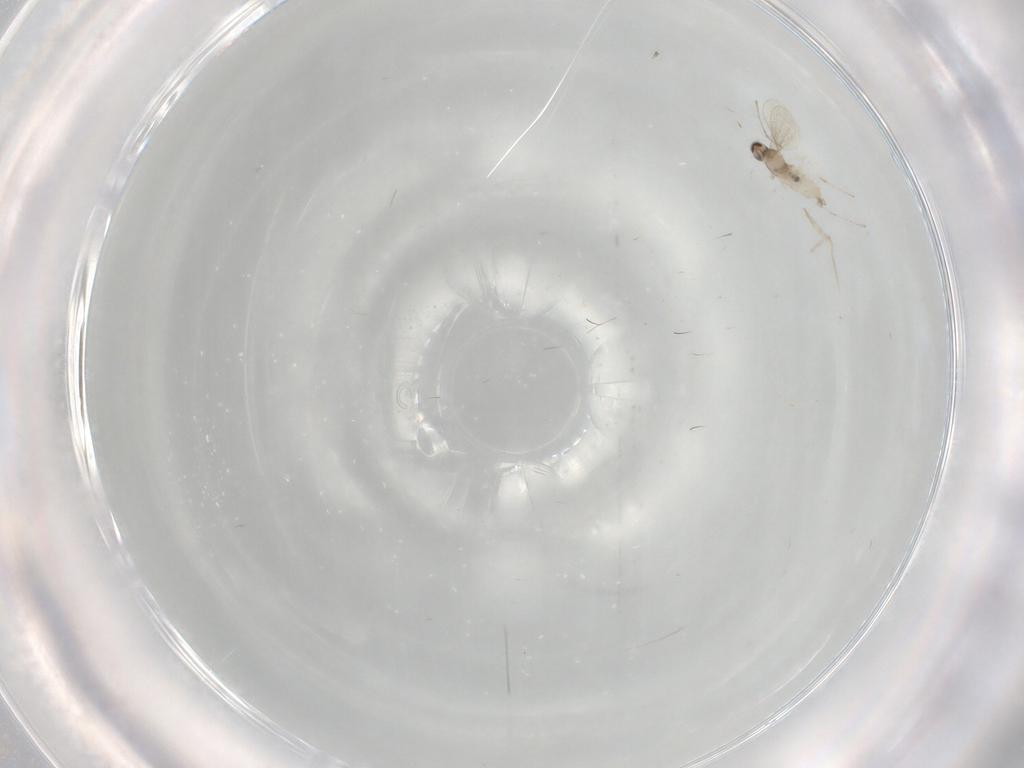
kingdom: Animalia
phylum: Arthropoda
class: Insecta
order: Diptera
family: Cecidomyiidae
